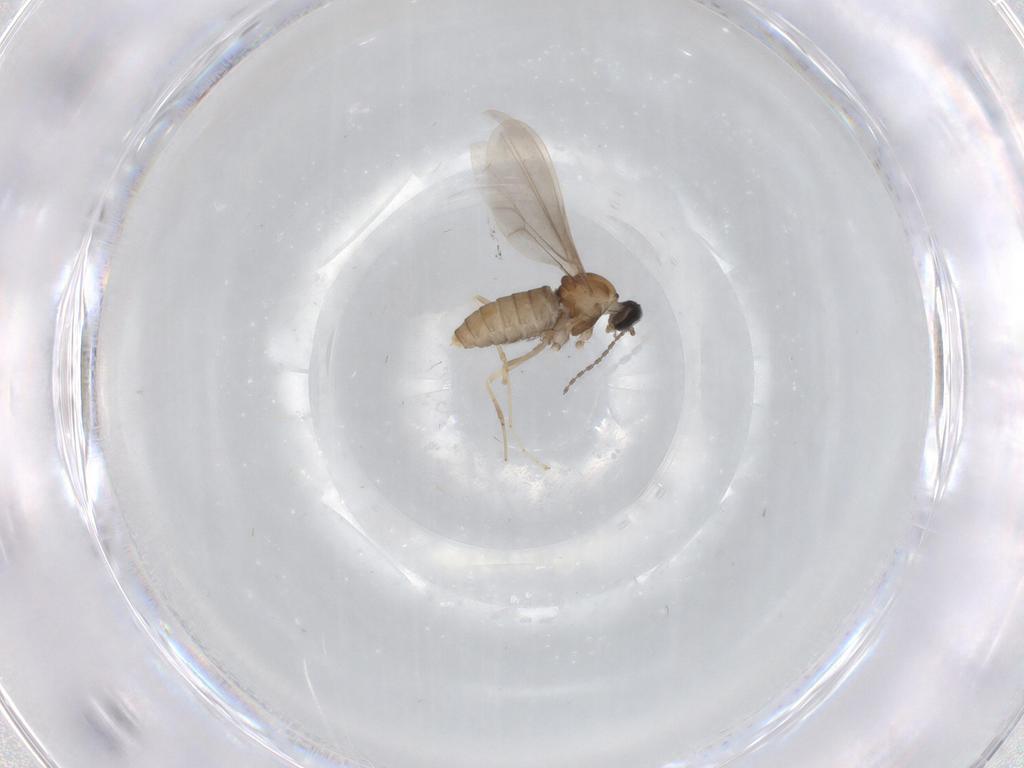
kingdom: Animalia
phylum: Arthropoda
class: Insecta
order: Diptera
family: Cecidomyiidae
